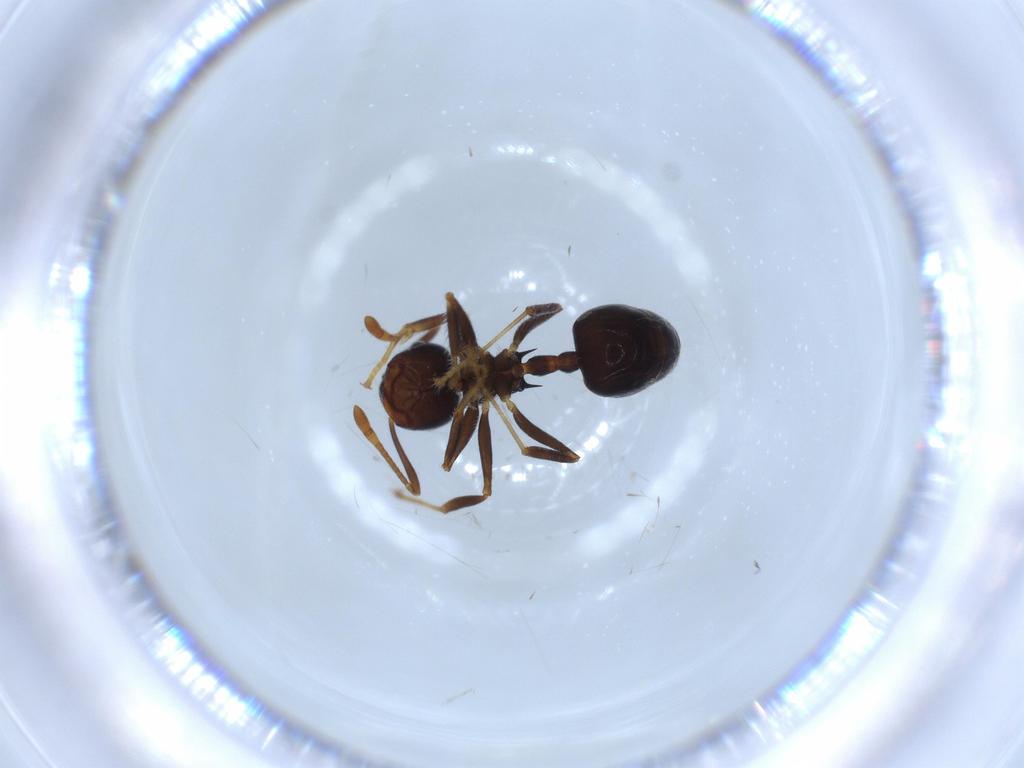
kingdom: Animalia
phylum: Arthropoda
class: Insecta
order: Hymenoptera
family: Formicidae
